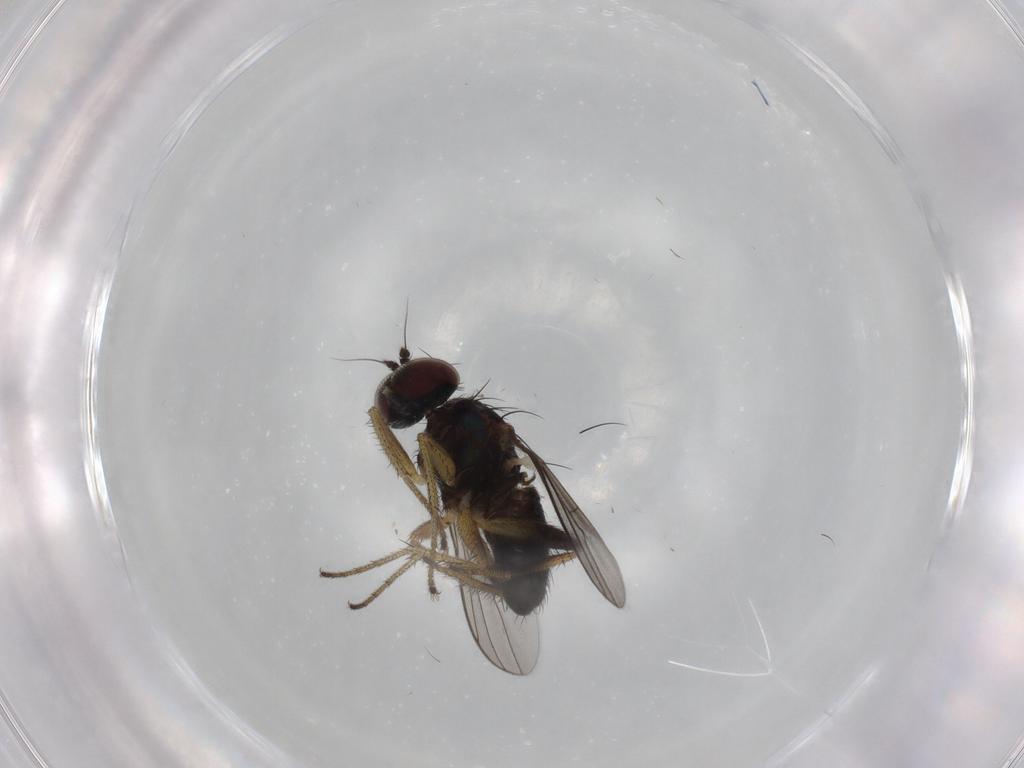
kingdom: Animalia
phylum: Arthropoda
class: Insecta
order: Diptera
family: Dolichopodidae
